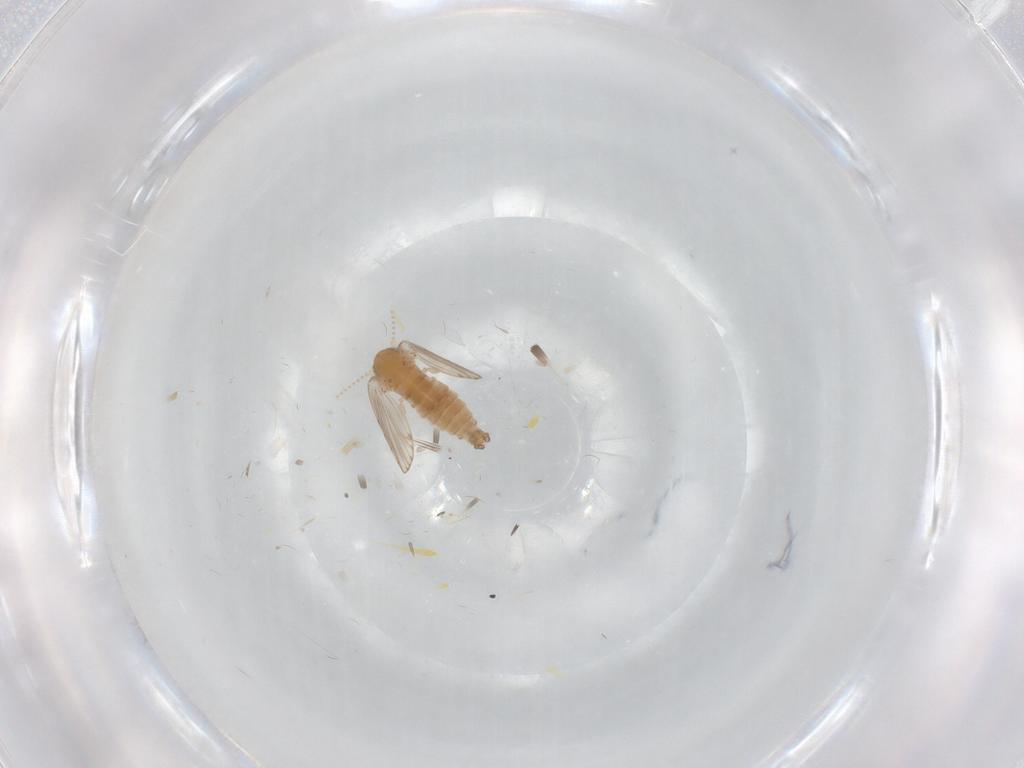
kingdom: Animalia
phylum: Arthropoda
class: Insecta
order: Diptera
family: Psychodidae
